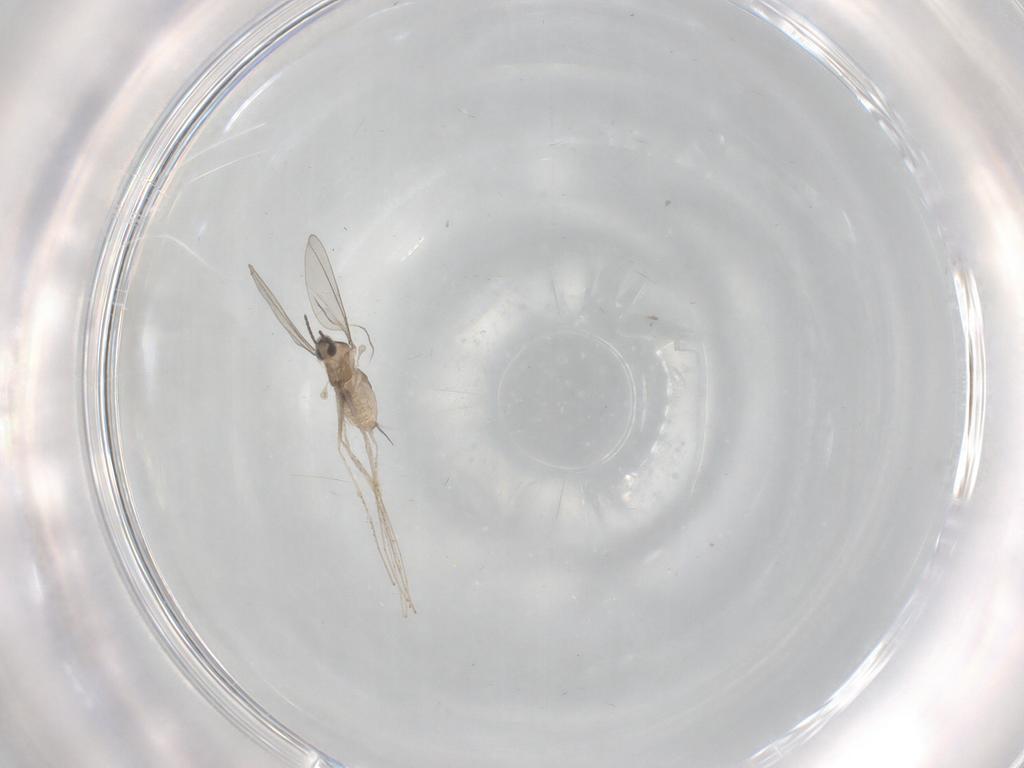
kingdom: Animalia
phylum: Arthropoda
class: Insecta
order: Diptera
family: Cecidomyiidae
